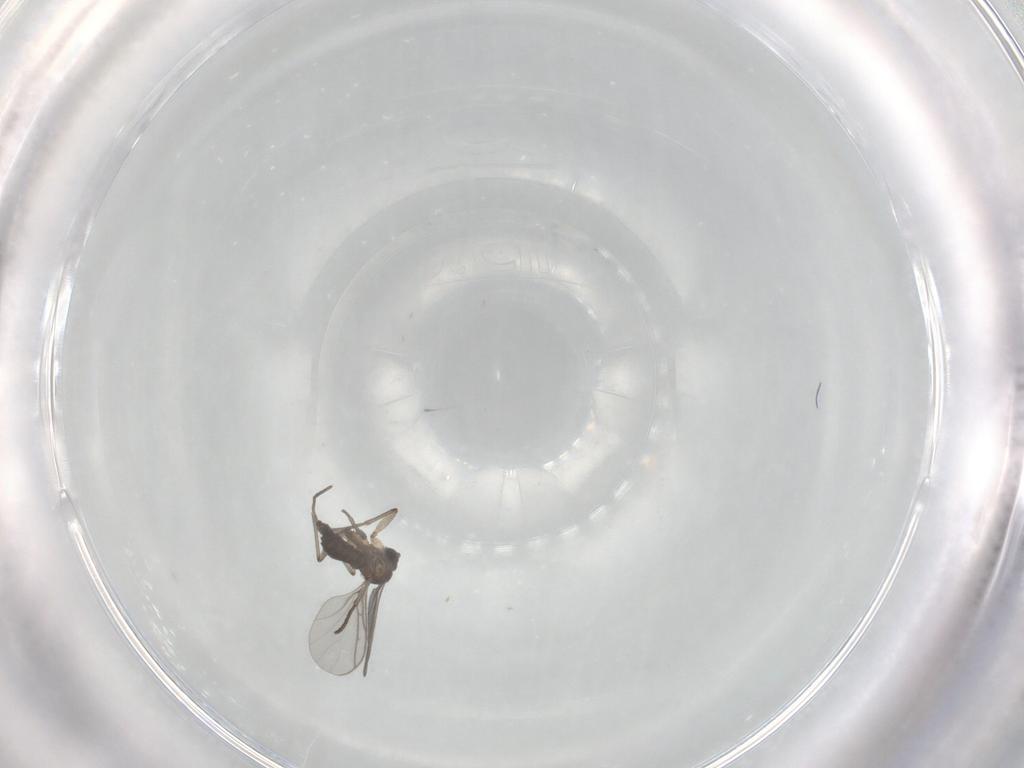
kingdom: Animalia
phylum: Arthropoda
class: Insecta
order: Diptera
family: Drosophilidae
